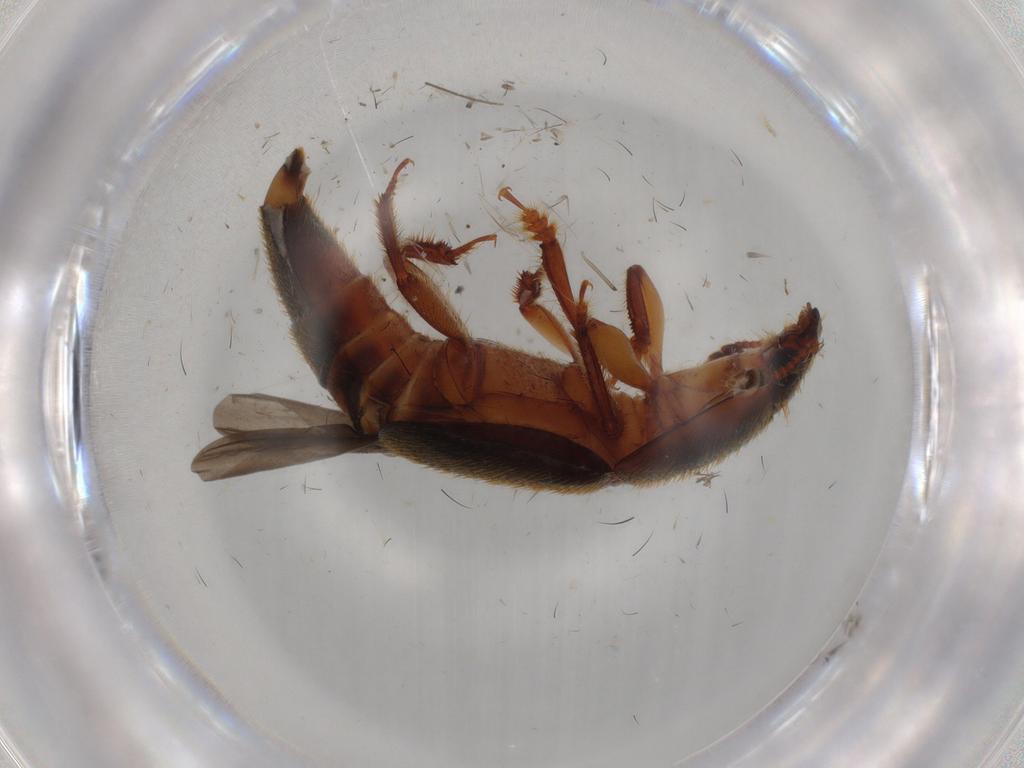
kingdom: Animalia
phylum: Arthropoda
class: Insecta
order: Coleoptera
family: Nitidulidae
